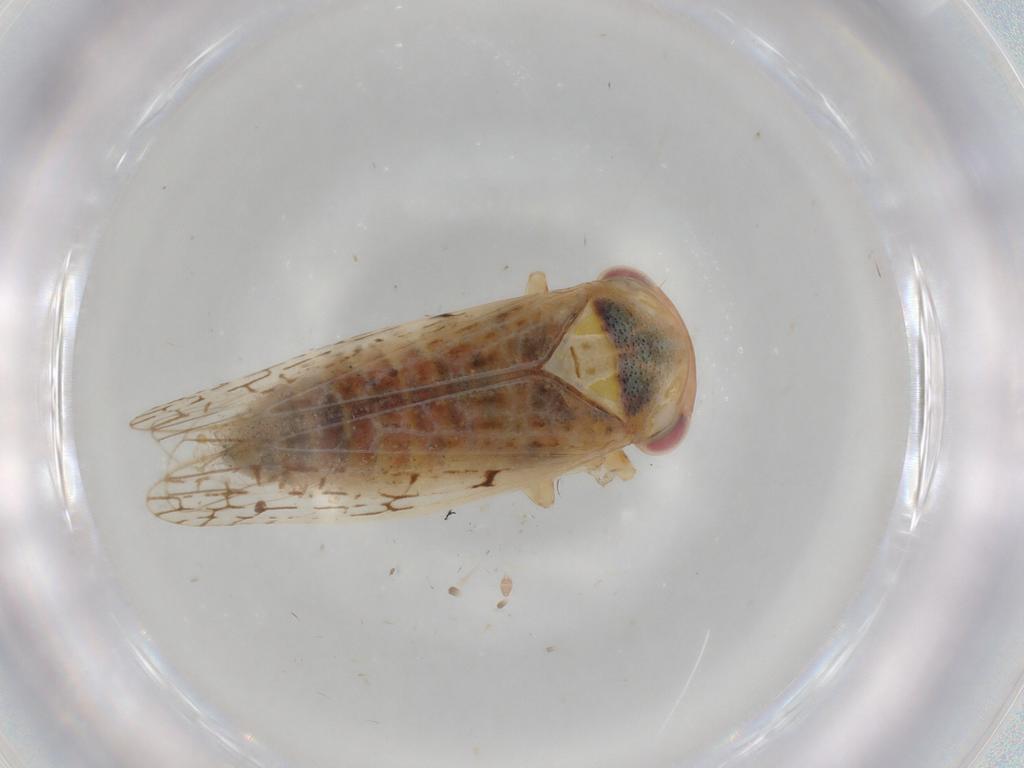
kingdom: Animalia
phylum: Arthropoda
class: Insecta
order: Hemiptera
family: Cicadellidae
